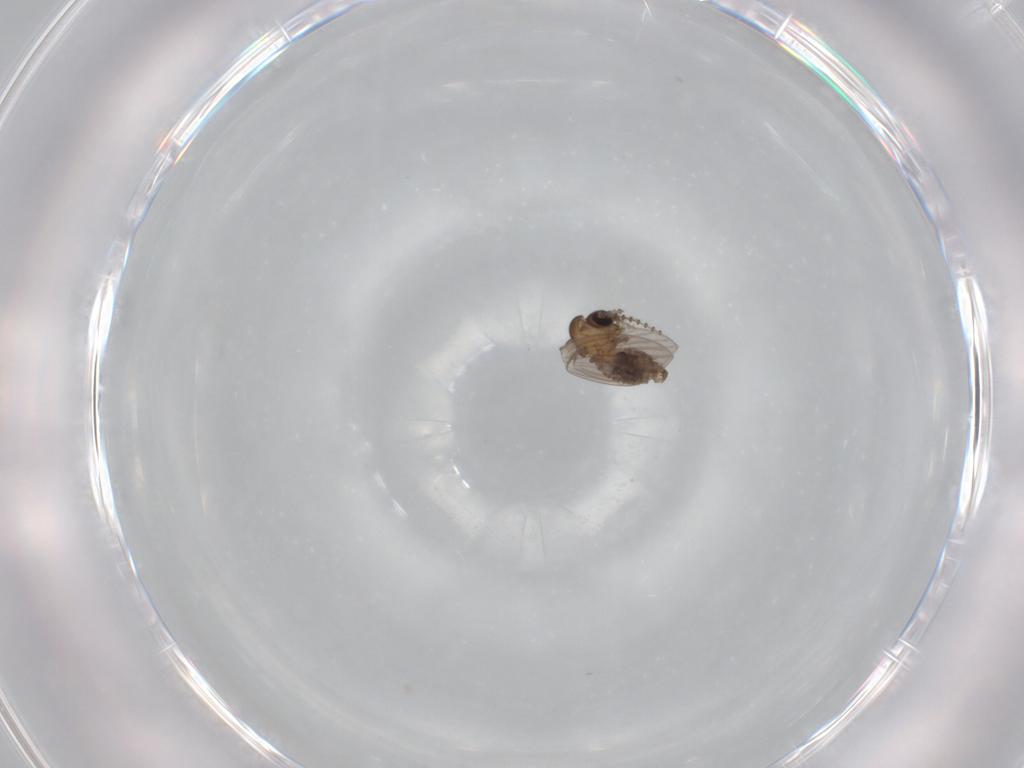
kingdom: Animalia
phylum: Arthropoda
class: Insecta
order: Diptera
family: Psychodidae
